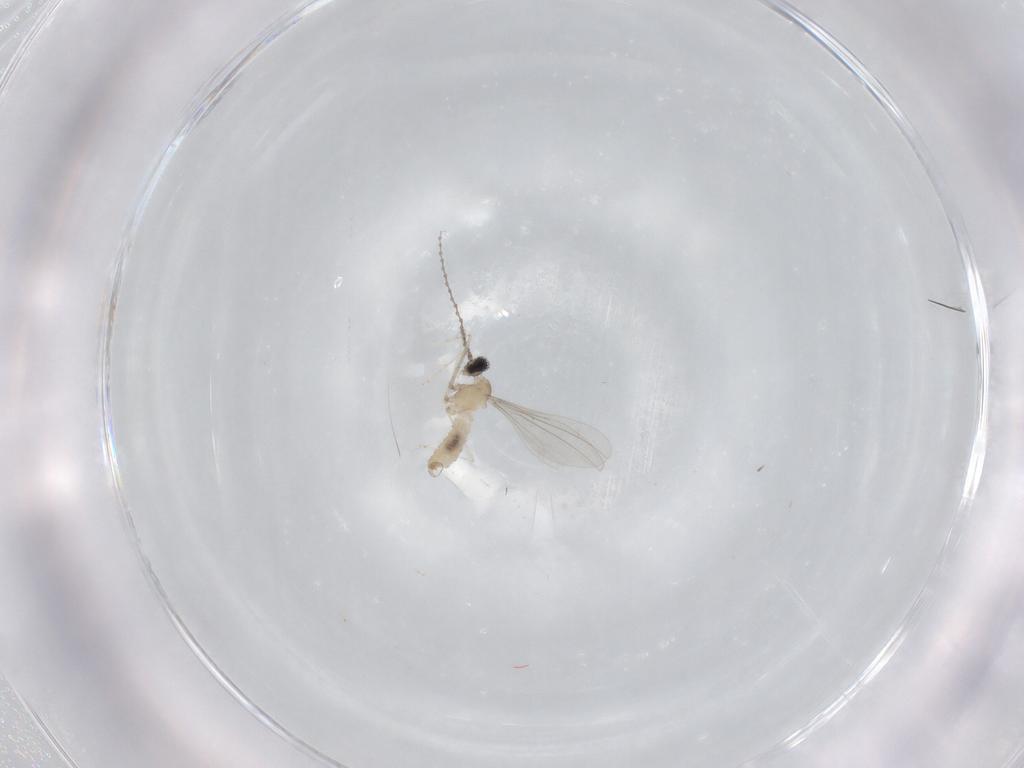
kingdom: Animalia
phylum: Arthropoda
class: Insecta
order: Diptera
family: Cecidomyiidae
